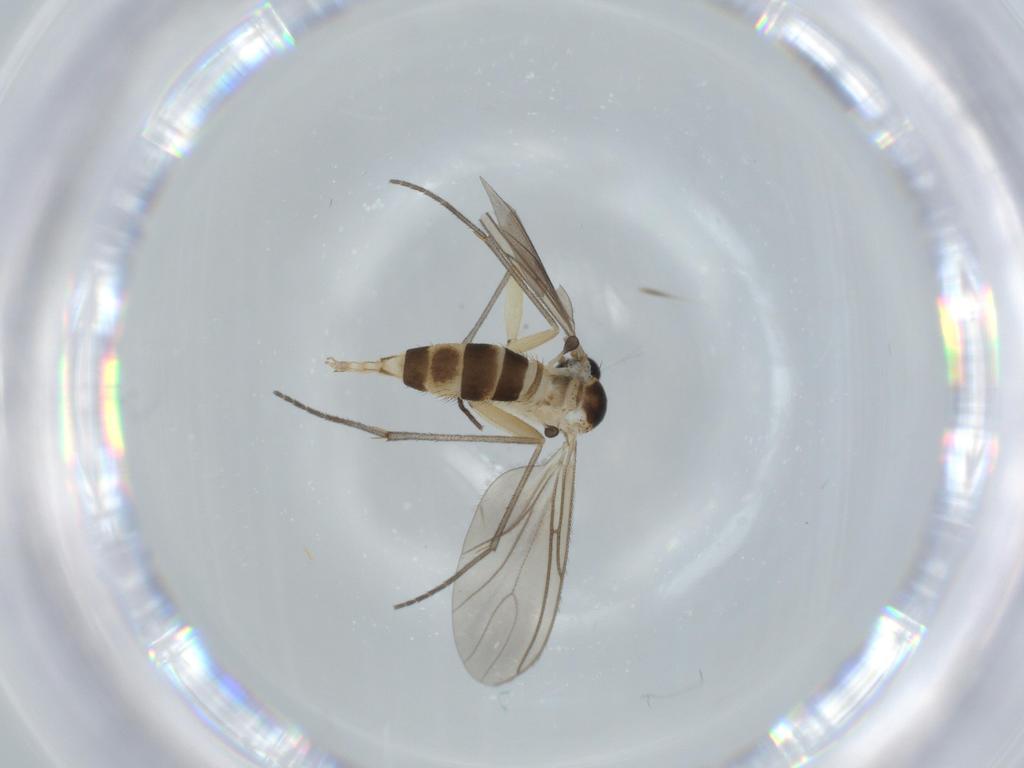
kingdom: Animalia
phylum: Arthropoda
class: Insecta
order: Diptera
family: Sciaridae
